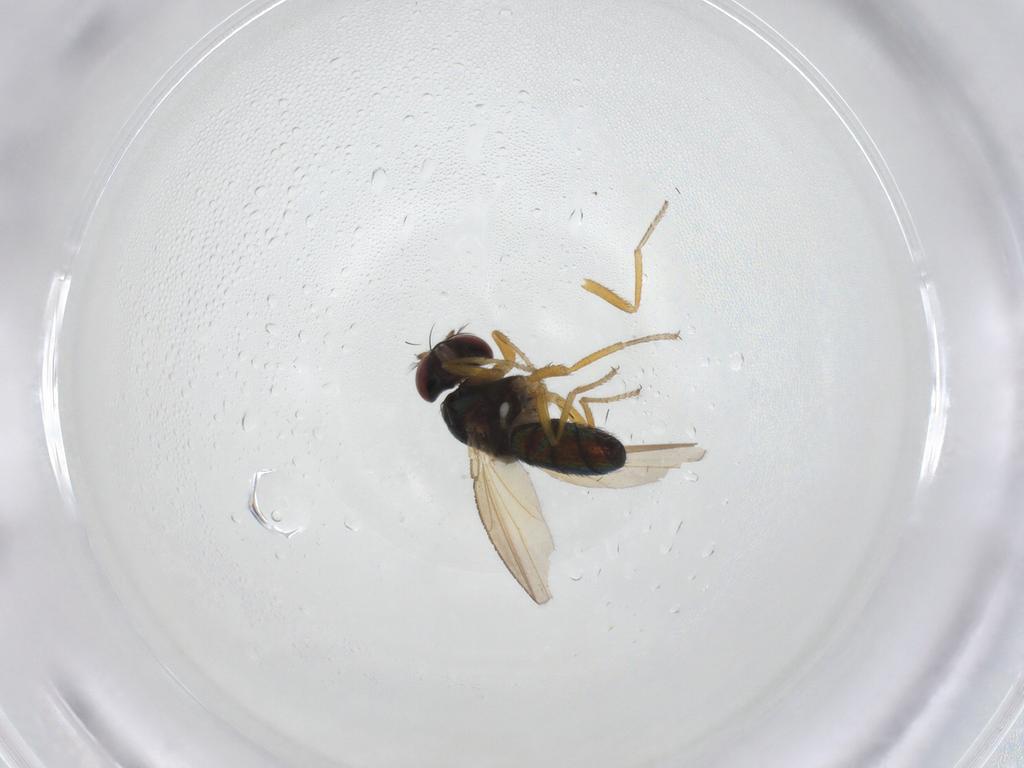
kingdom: Animalia
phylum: Arthropoda
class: Insecta
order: Diptera
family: Ephydridae
